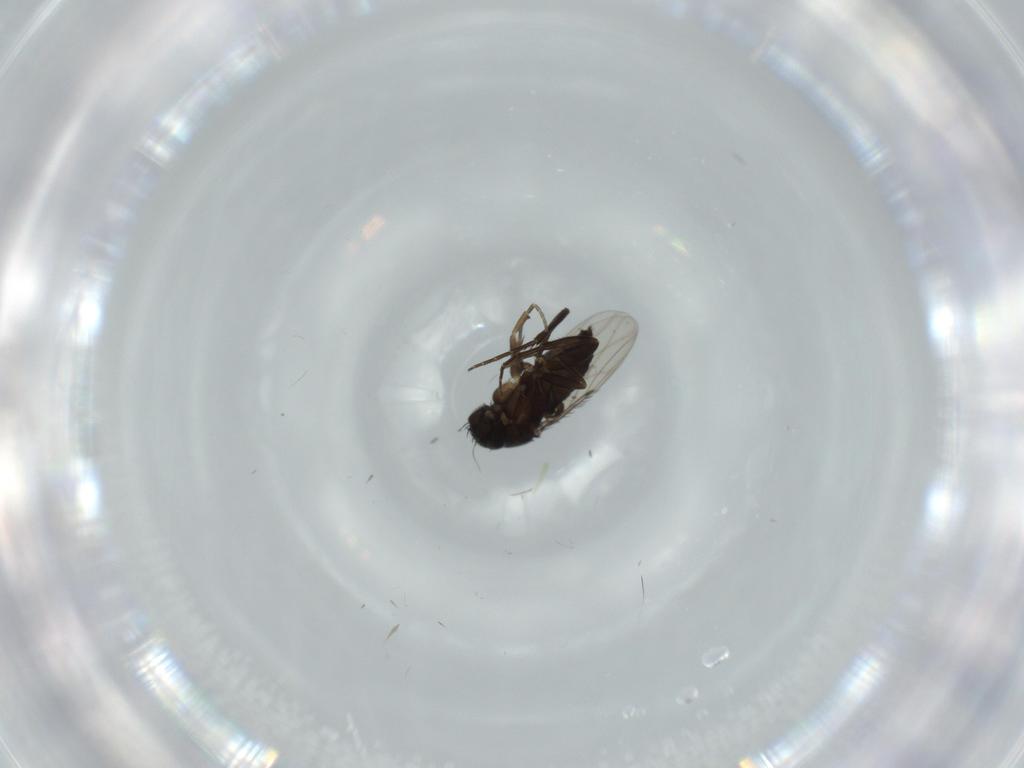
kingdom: Animalia
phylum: Arthropoda
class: Insecta
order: Diptera
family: Phoridae
